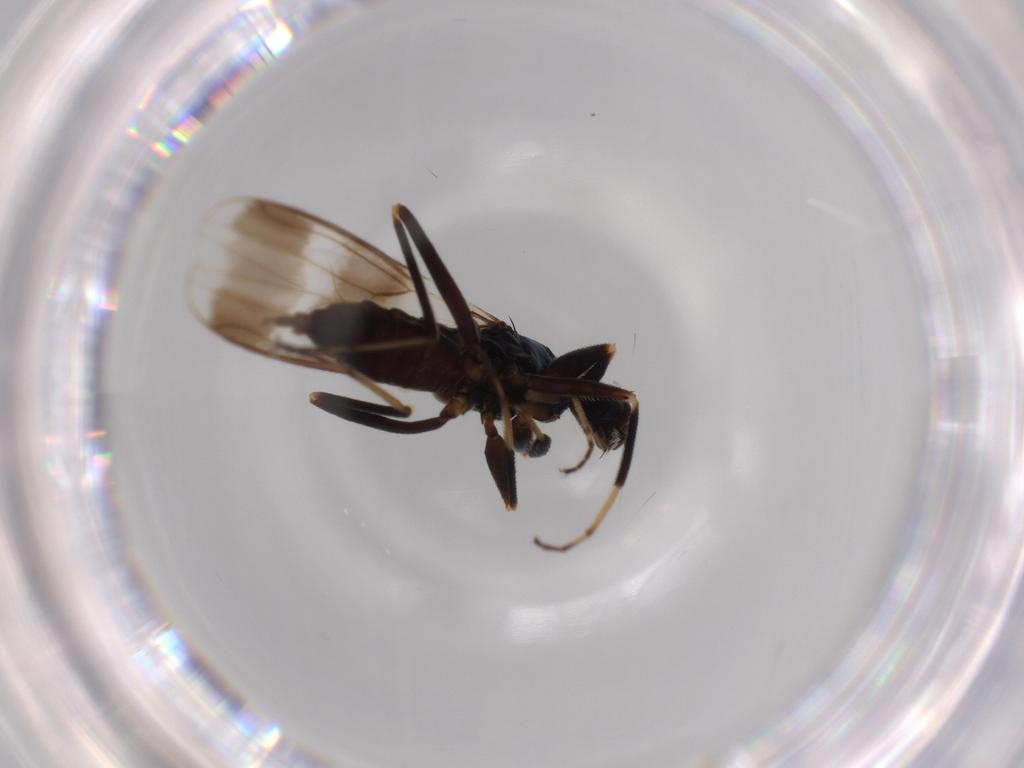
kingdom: Animalia
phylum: Arthropoda
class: Insecta
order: Diptera
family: Hybotidae
